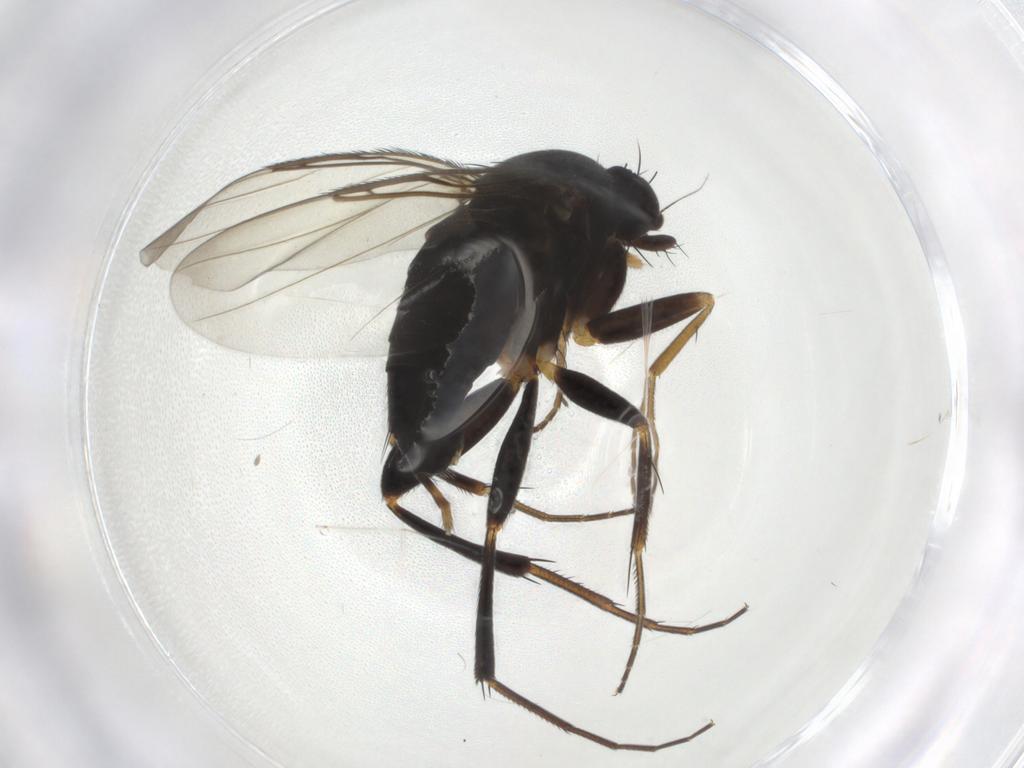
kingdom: Animalia
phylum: Arthropoda
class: Insecta
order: Diptera
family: Phoridae
